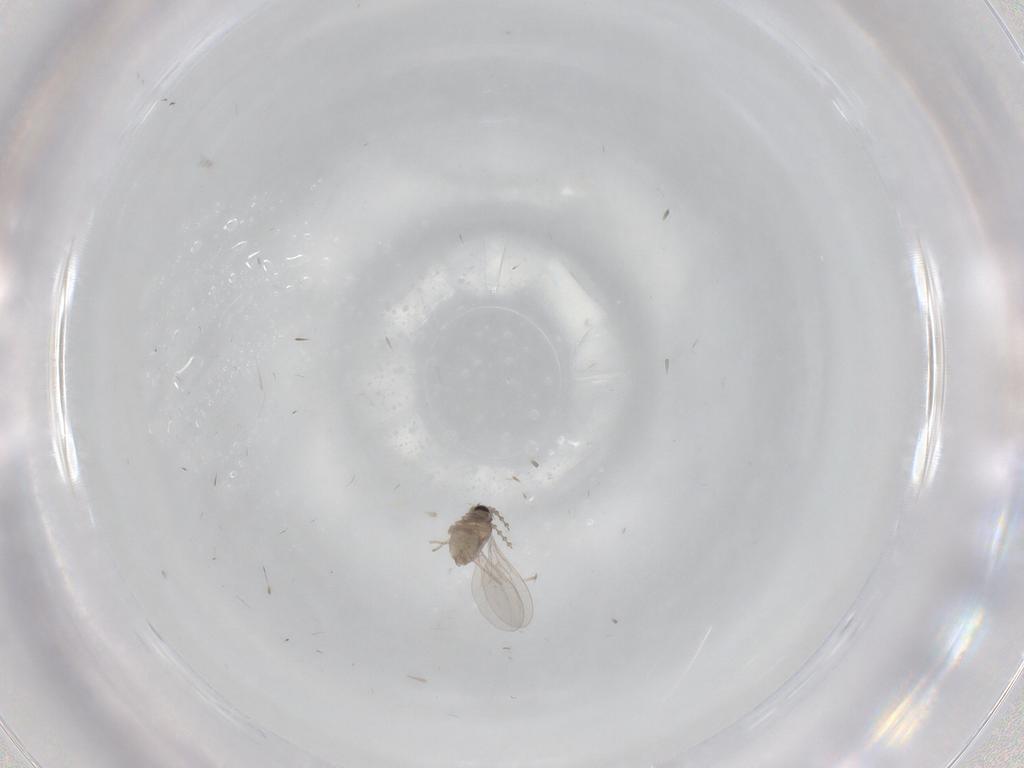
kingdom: Animalia
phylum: Arthropoda
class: Insecta
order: Diptera
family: Cecidomyiidae
